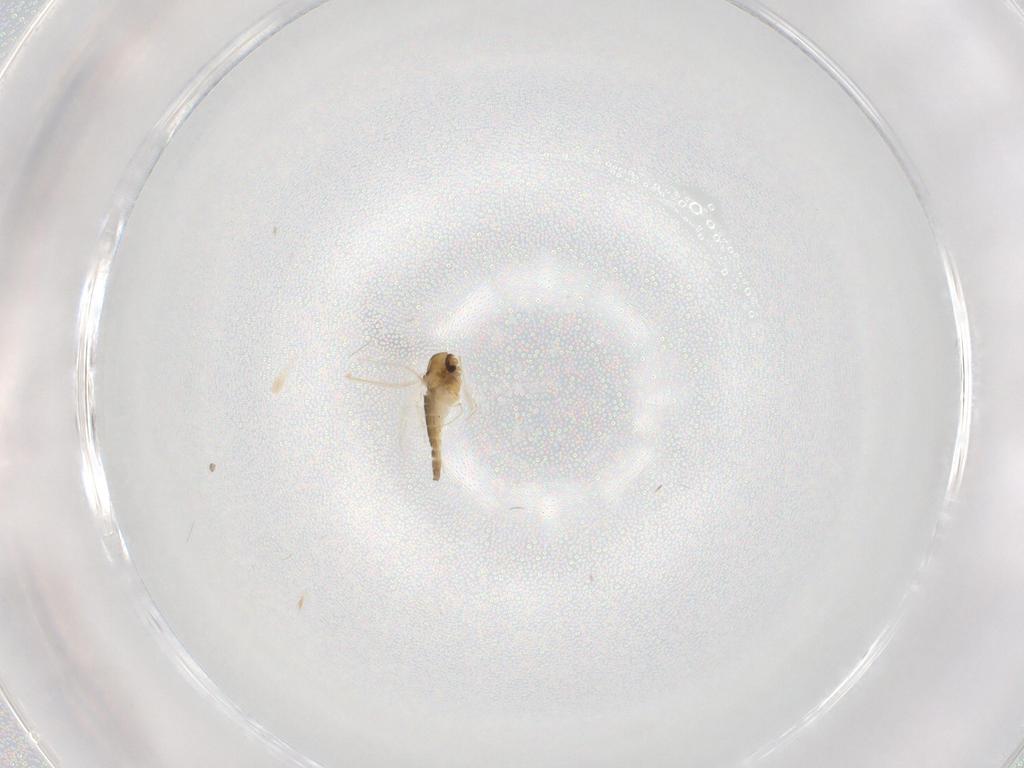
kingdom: Animalia
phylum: Arthropoda
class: Insecta
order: Diptera
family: Chironomidae
